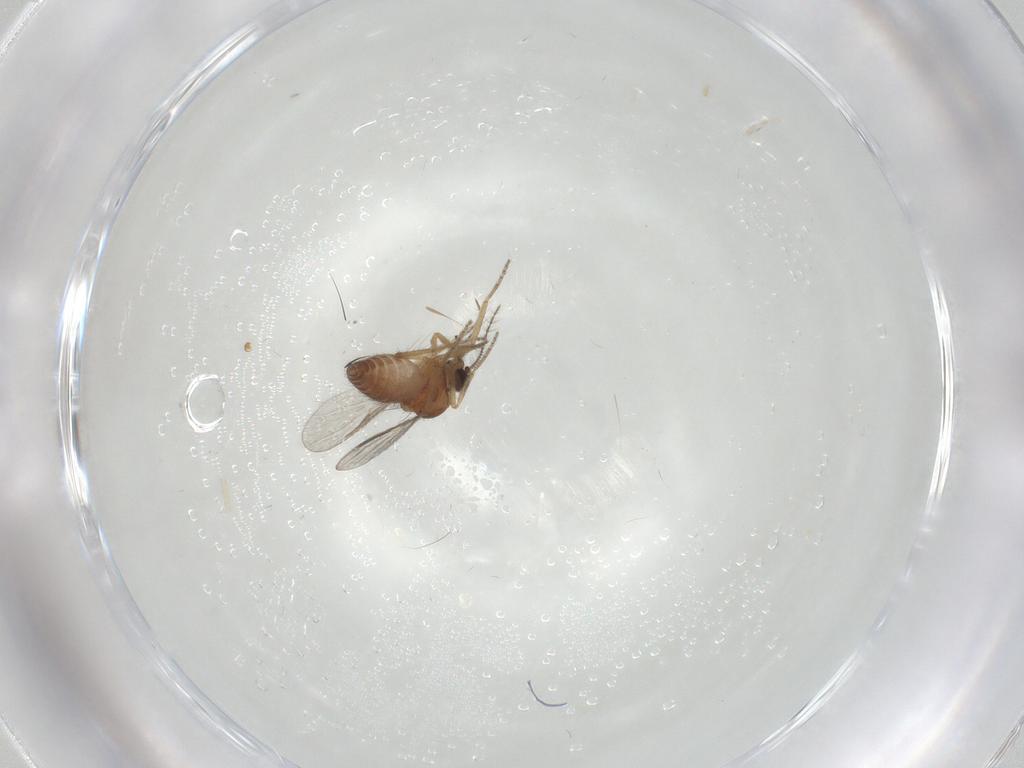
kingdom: Animalia
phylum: Arthropoda
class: Insecta
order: Diptera
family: Ceratopogonidae
